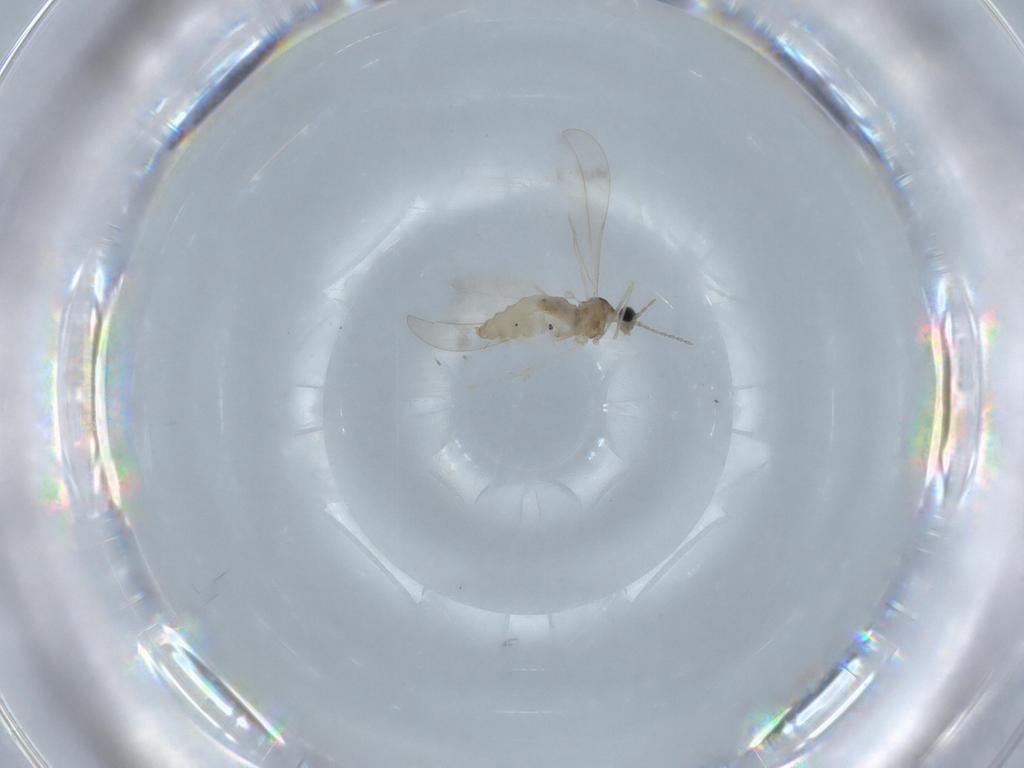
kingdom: Animalia
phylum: Arthropoda
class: Insecta
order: Diptera
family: Cecidomyiidae
